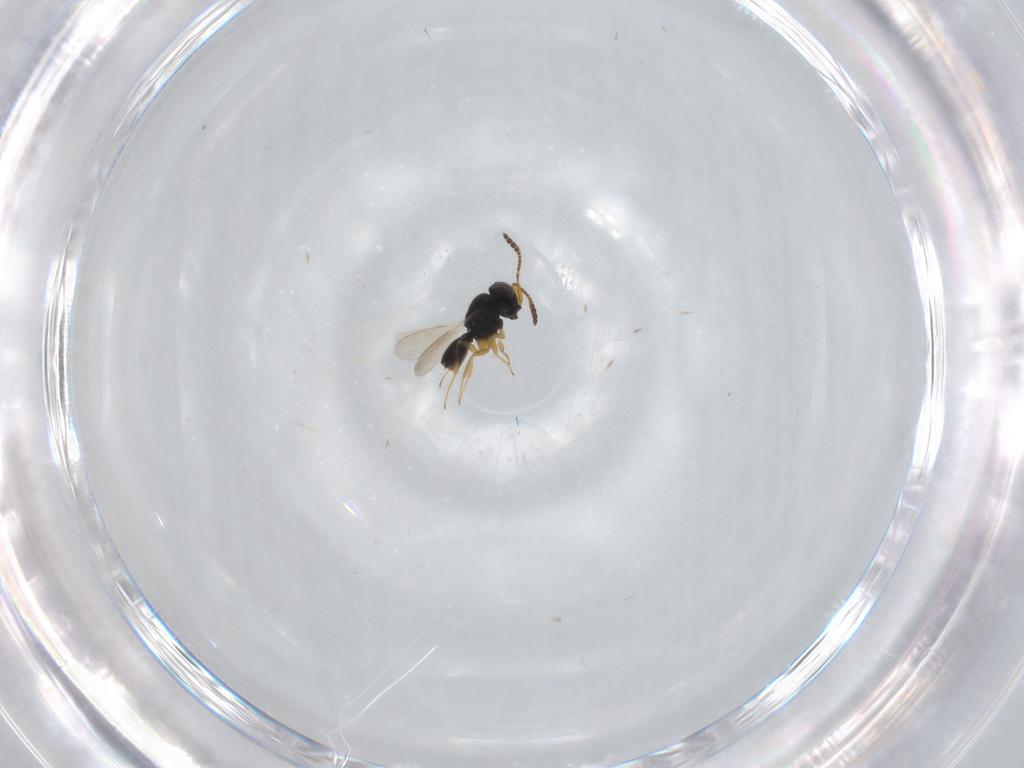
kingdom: Animalia
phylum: Arthropoda
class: Insecta
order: Hymenoptera
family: Scelionidae
